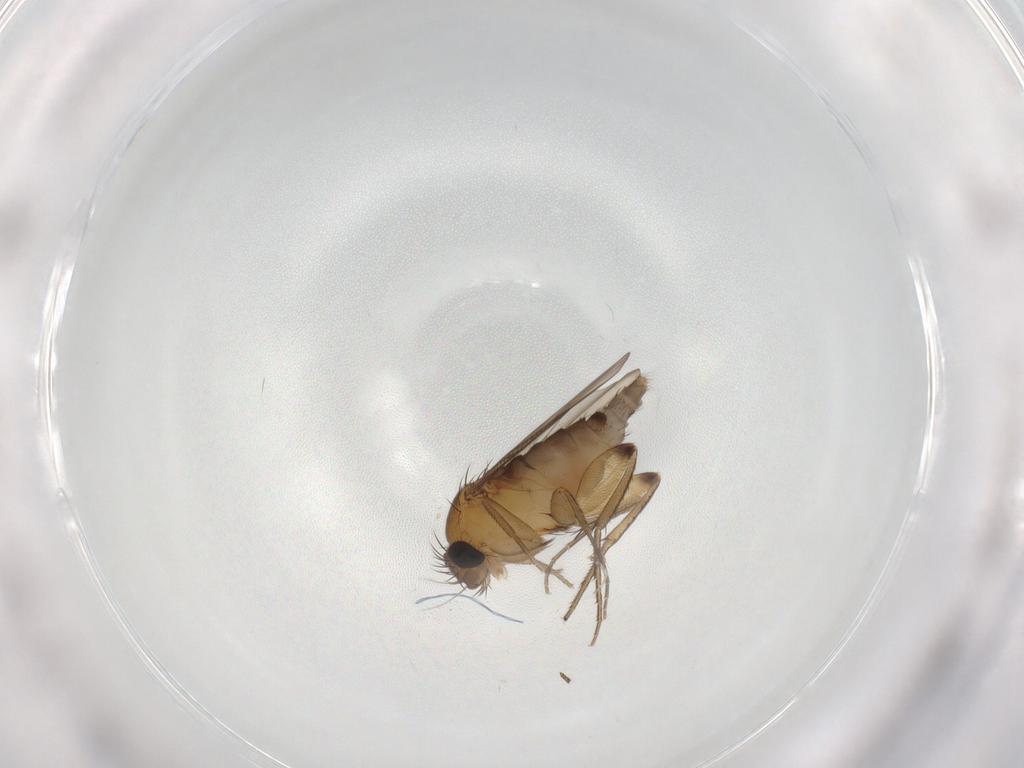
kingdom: Animalia
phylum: Arthropoda
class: Insecta
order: Diptera
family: Phoridae
